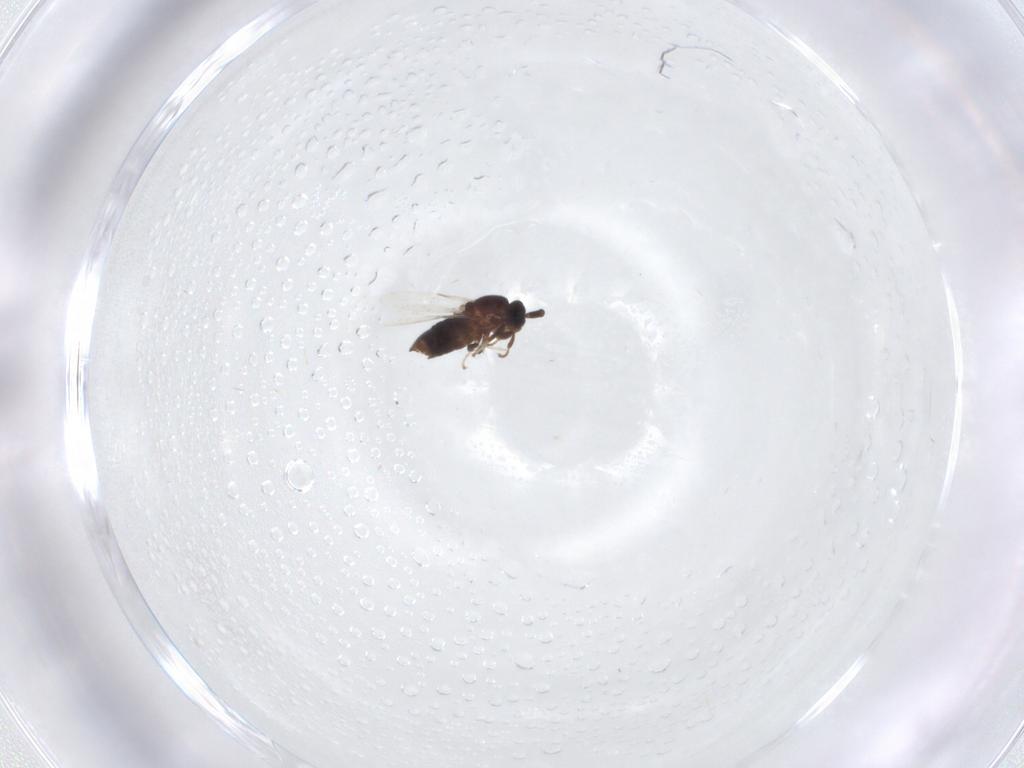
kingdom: Animalia
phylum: Arthropoda
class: Insecta
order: Diptera
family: Scatopsidae
